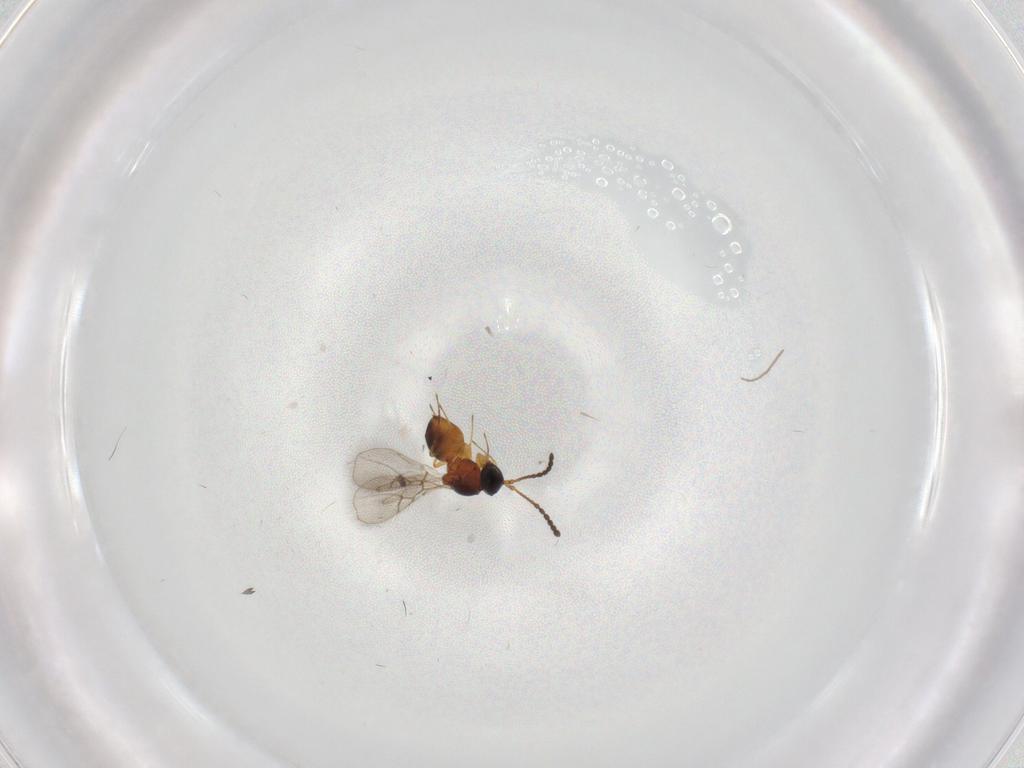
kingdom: Animalia
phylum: Arthropoda
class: Insecta
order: Hymenoptera
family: Figitidae
